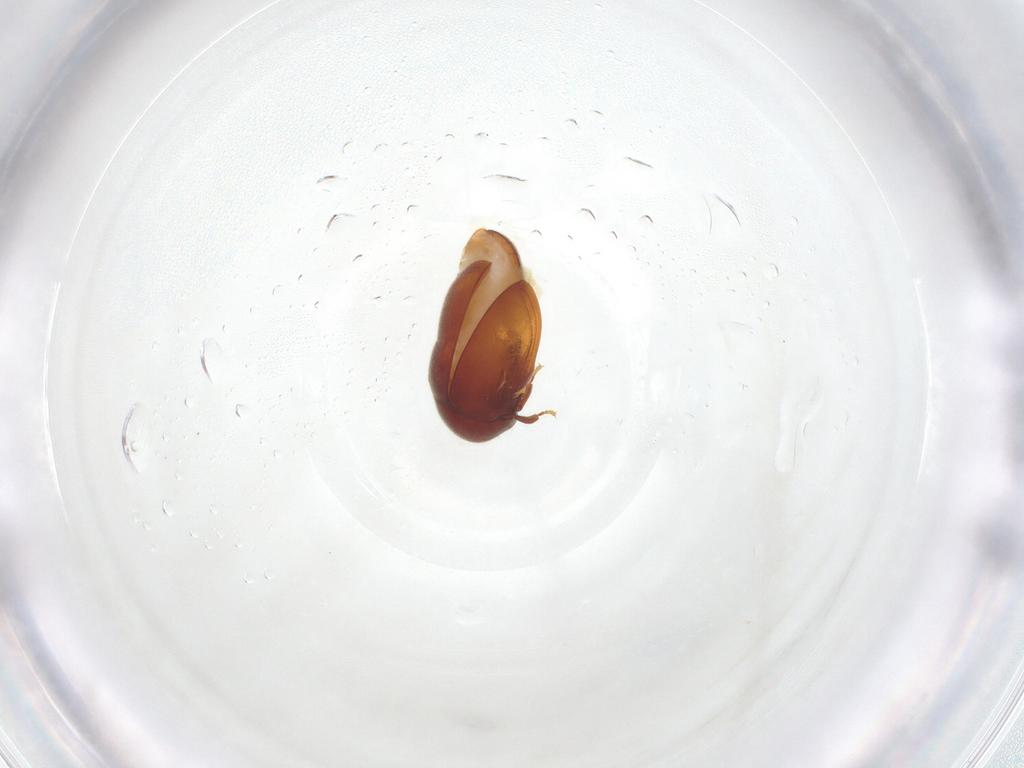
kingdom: Animalia
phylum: Arthropoda
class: Insecta
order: Coleoptera
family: Ptinidae
